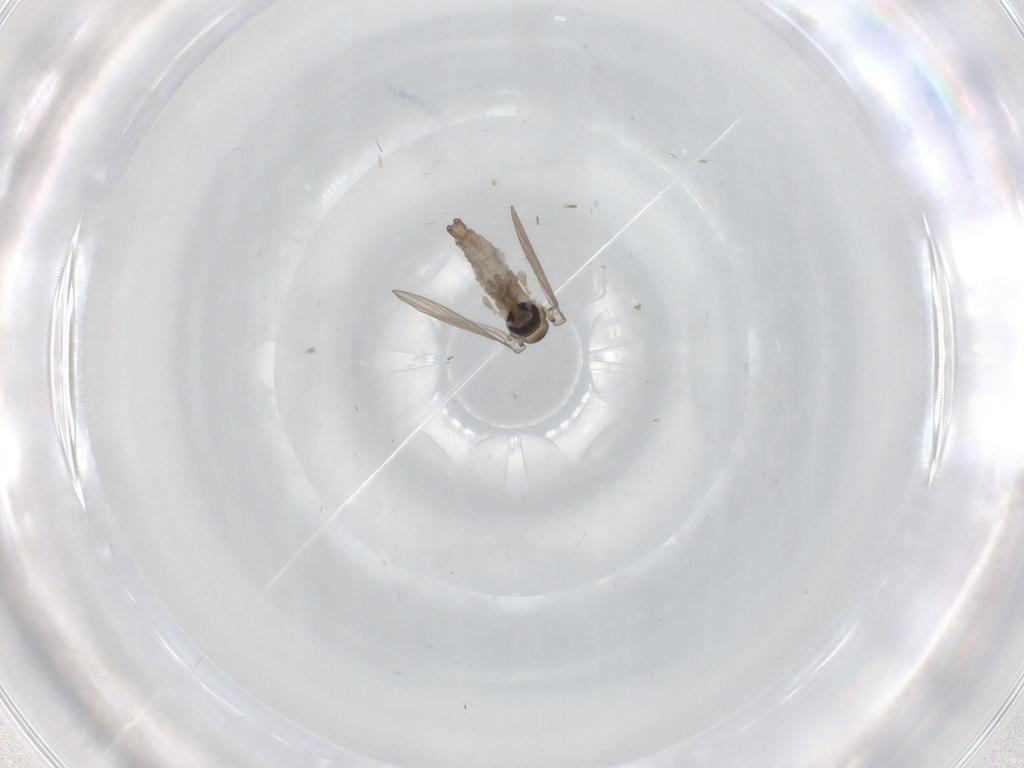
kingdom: Animalia
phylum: Arthropoda
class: Insecta
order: Diptera
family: Psychodidae
